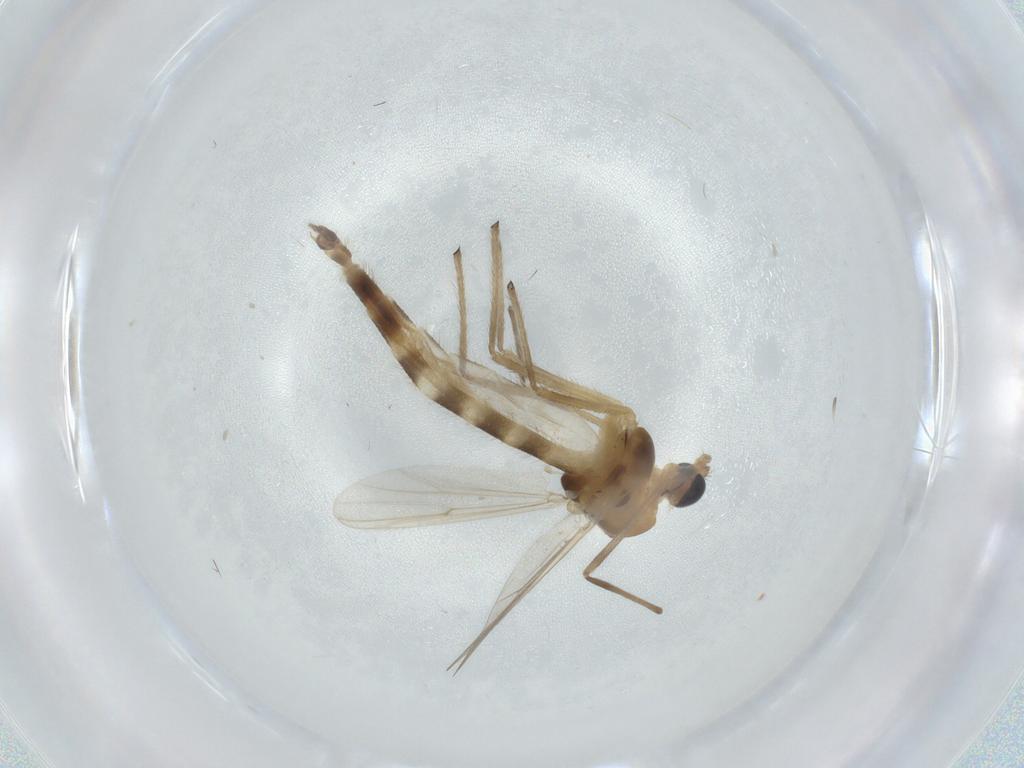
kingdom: Animalia
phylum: Arthropoda
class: Insecta
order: Diptera
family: Chironomidae
